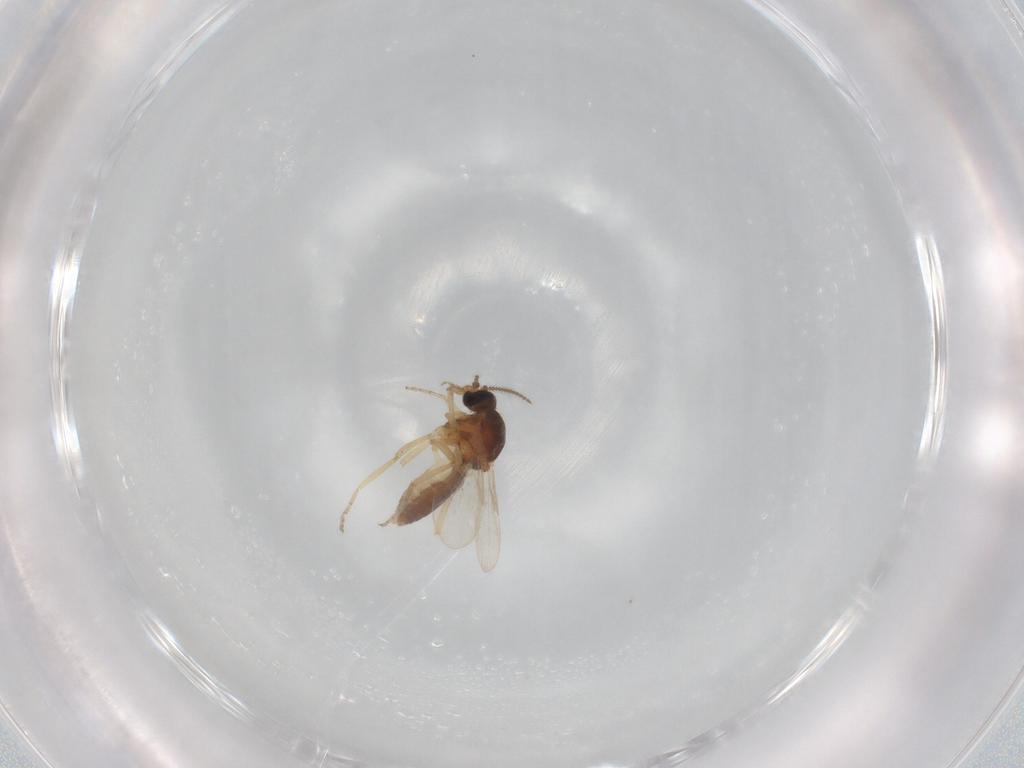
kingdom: Animalia
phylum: Arthropoda
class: Insecta
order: Diptera
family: Ceratopogonidae
